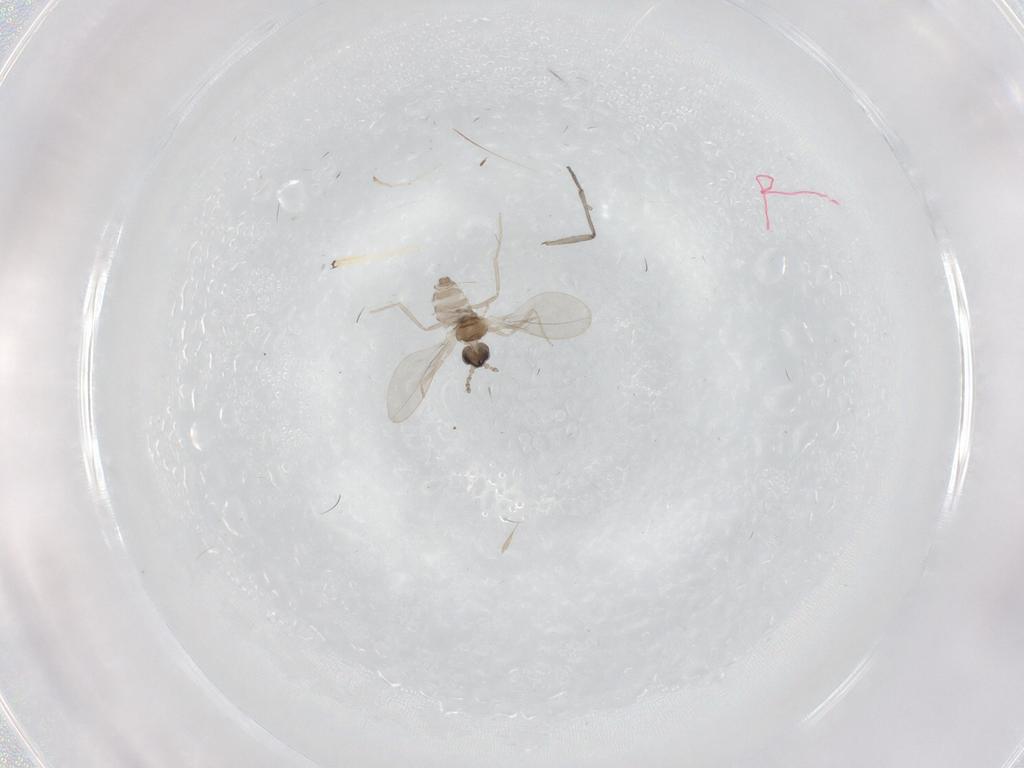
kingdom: Animalia
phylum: Arthropoda
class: Insecta
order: Diptera
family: Cecidomyiidae
